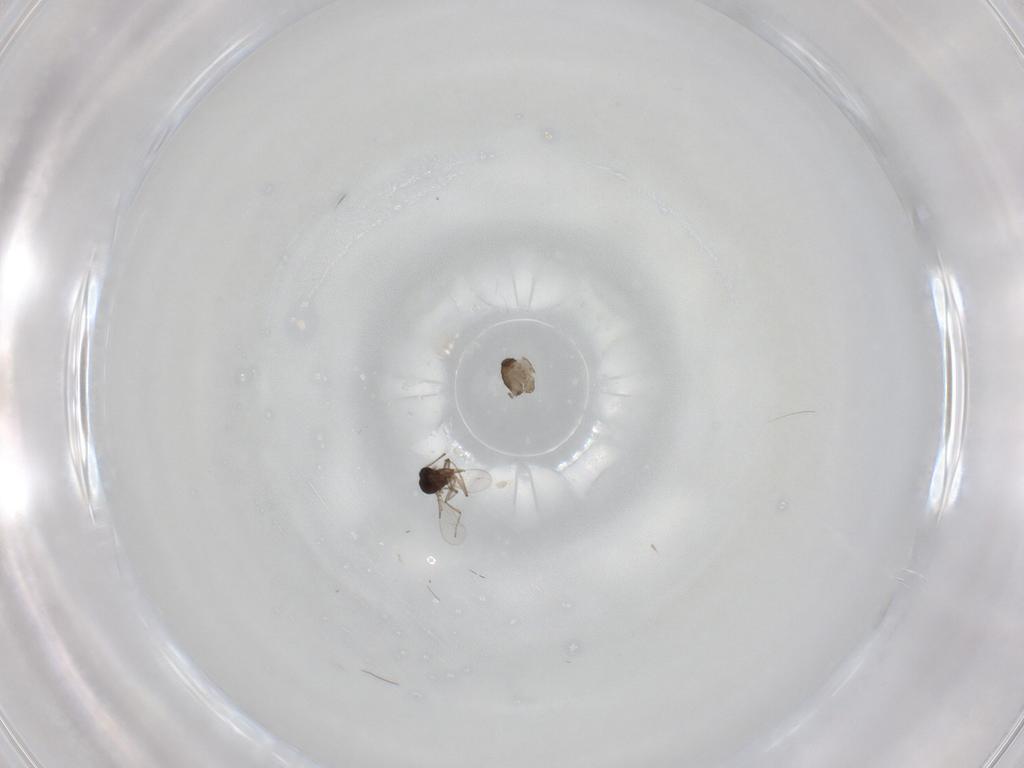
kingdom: Animalia
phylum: Arthropoda
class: Insecta
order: Diptera
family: Ceratopogonidae
